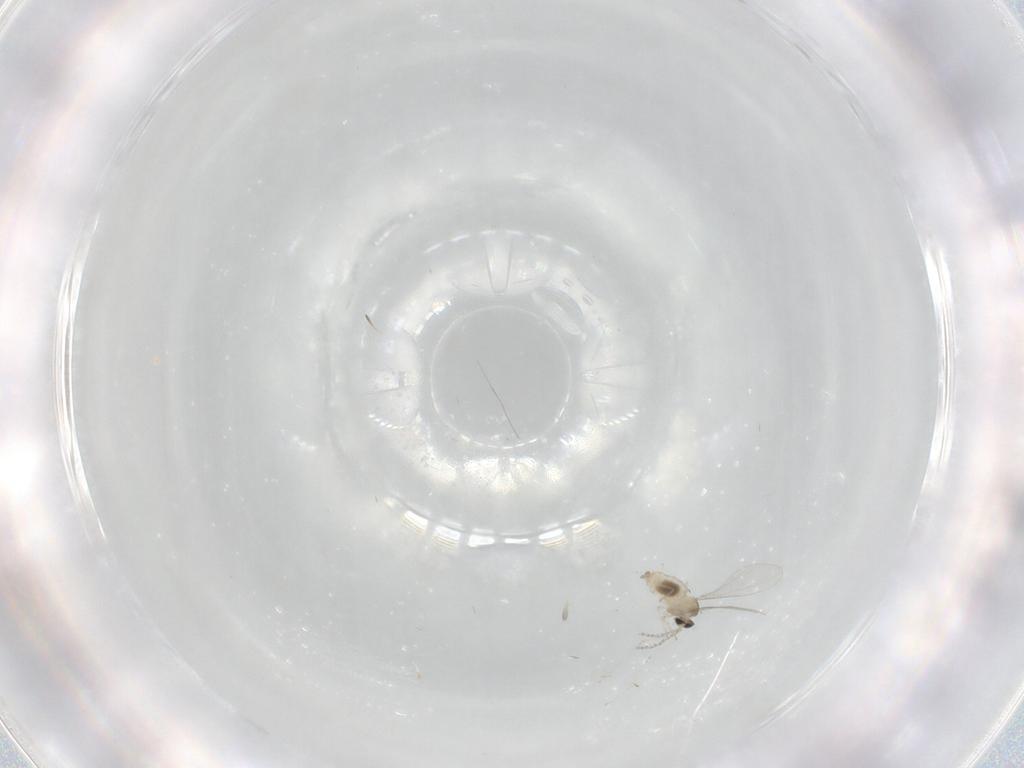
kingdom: Animalia
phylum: Arthropoda
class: Insecta
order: Diptera
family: Cecidomyiidae
